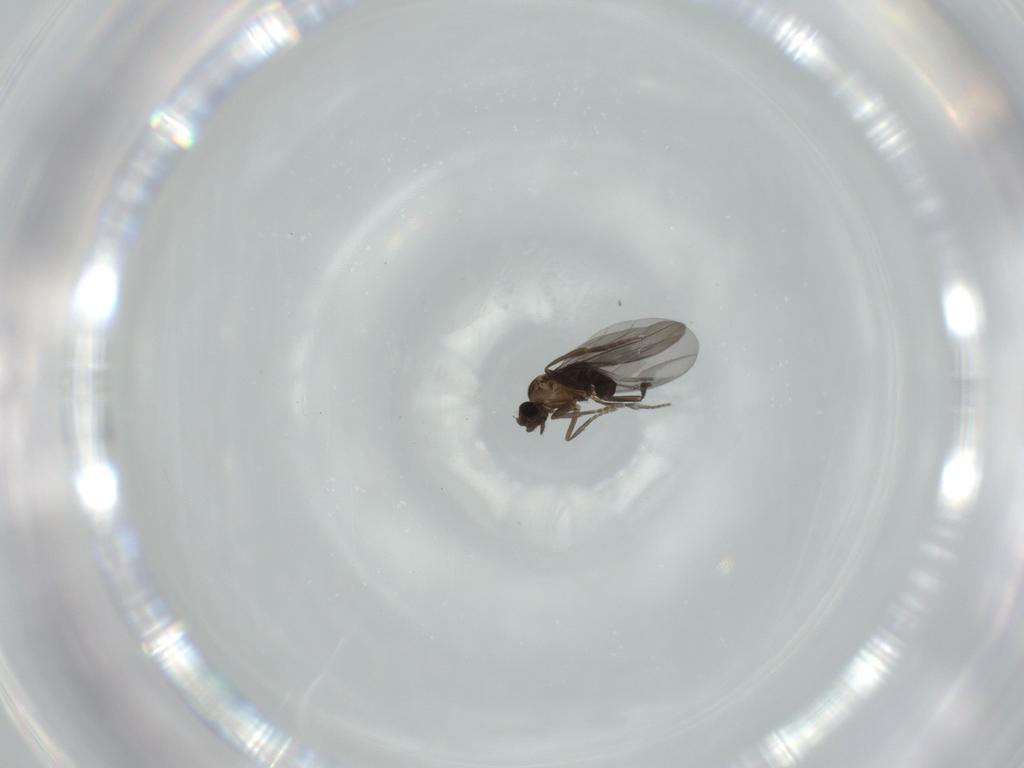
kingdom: Animalia
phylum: Arthropoda
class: Insecta
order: Diptera
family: Phoridae
